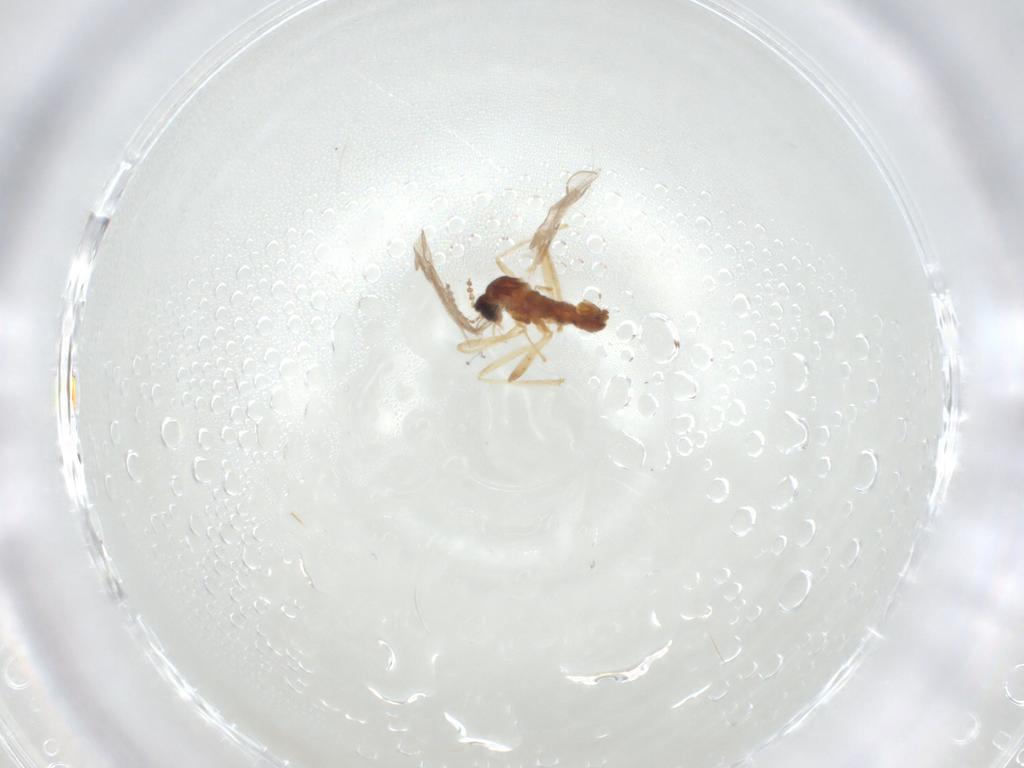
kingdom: Animalia
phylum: Arthropoda
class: Insecta
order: Diptera
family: Cecidomyiidae
